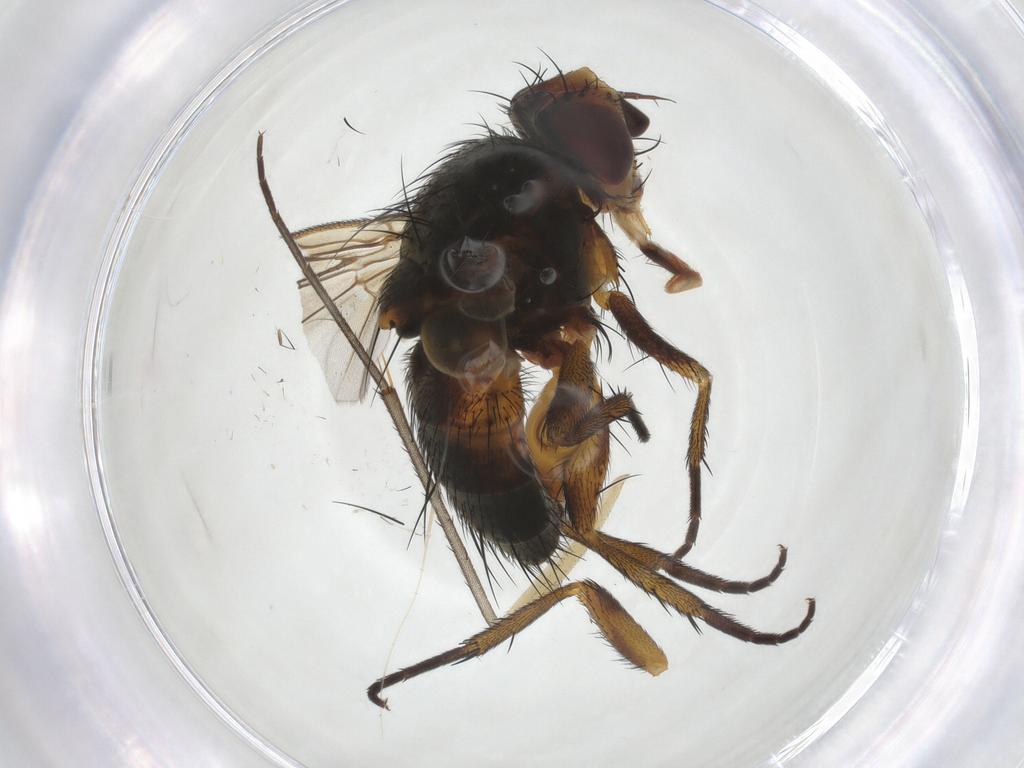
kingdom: Animalia
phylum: Arthropoda
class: Insecta
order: Diptera
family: Tachinidae
